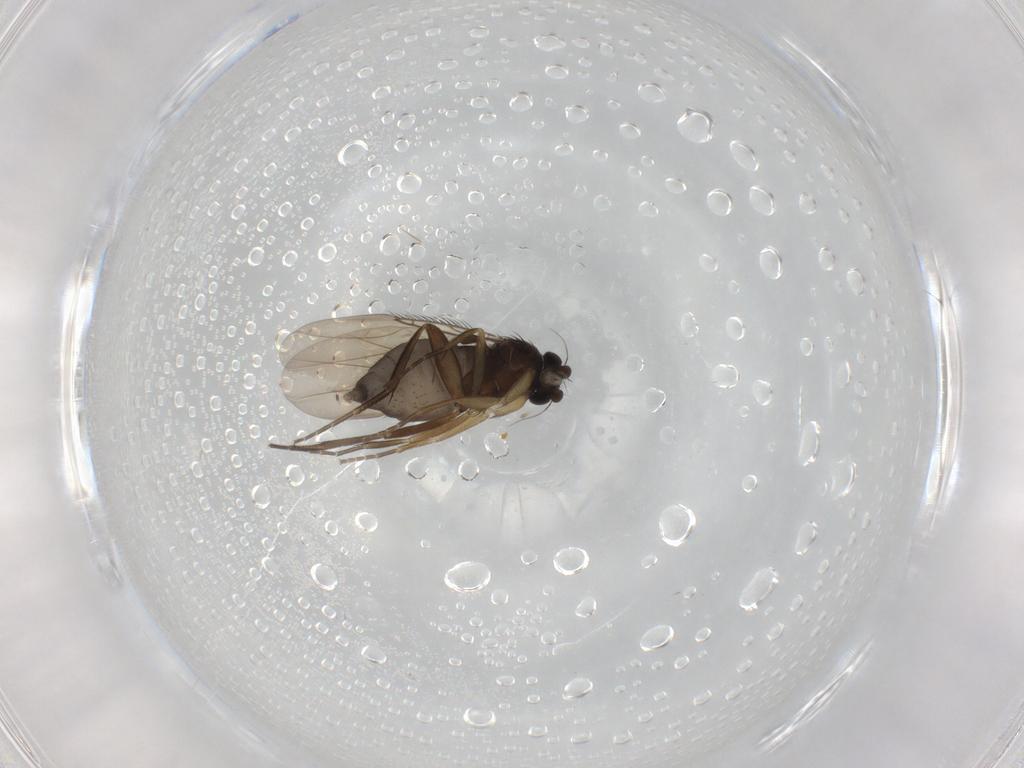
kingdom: Animalia
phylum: Arthropoda
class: Insecta
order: Diptera
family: Phoridae
